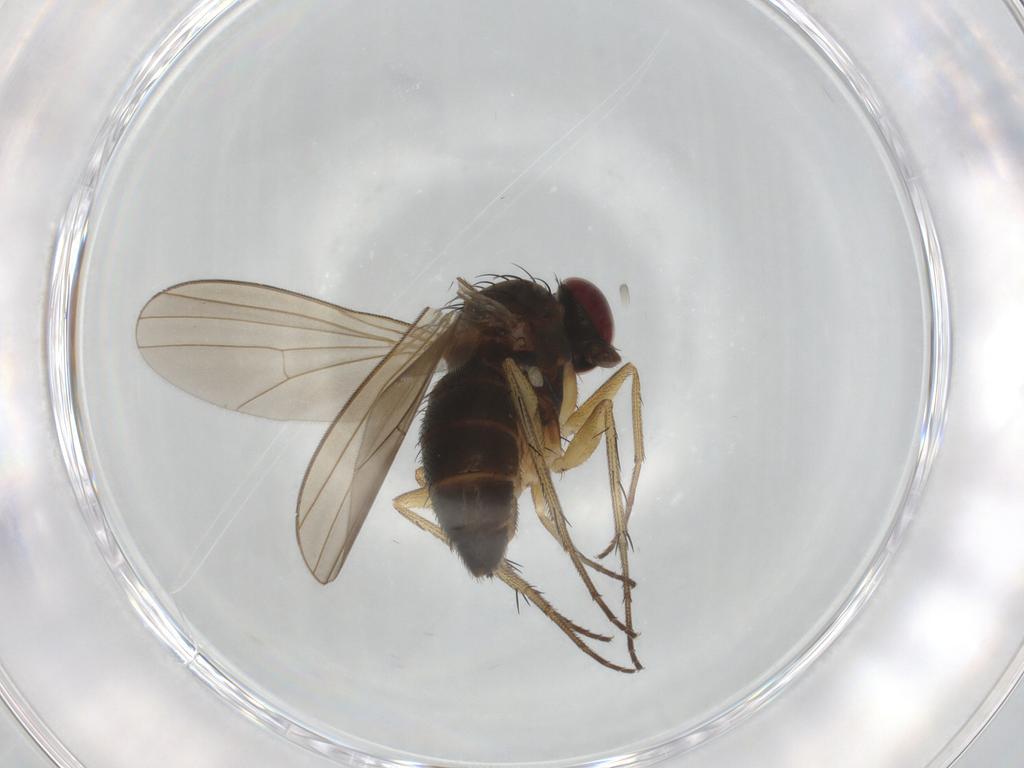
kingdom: Animalia
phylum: Arthropoda
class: Insecta
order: Diptera
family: Dolichopodidae
